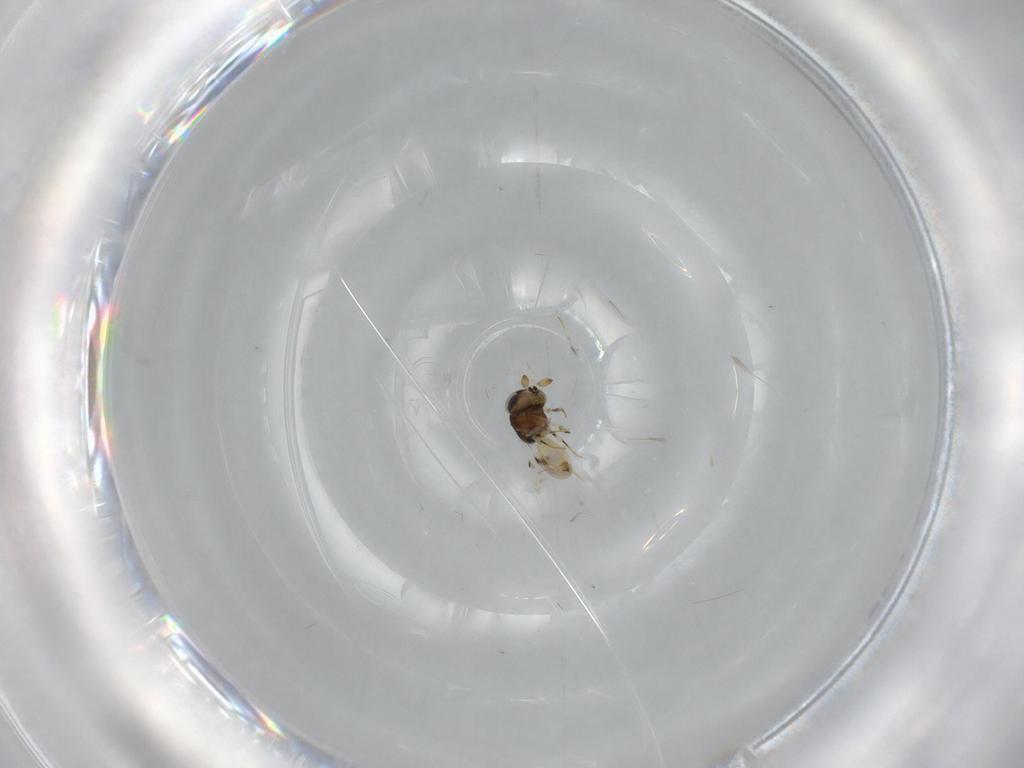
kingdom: Animalia
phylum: Arthropoda
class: Insecta
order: Hymenoptera
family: Scelionidae
